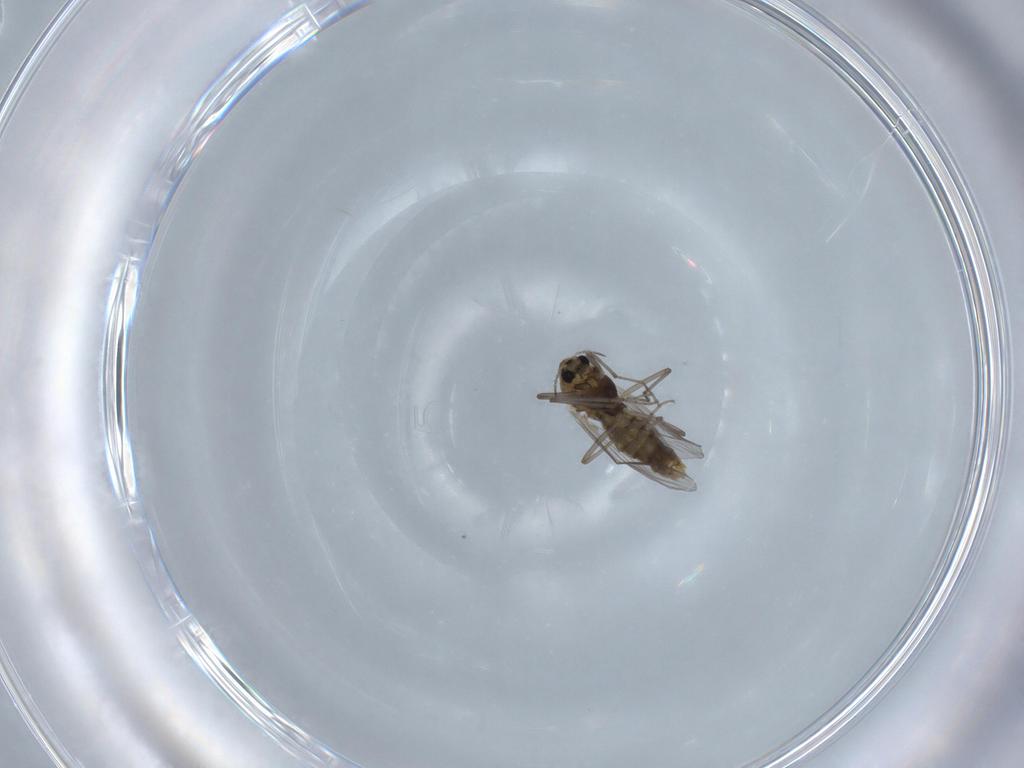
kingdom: Animalia
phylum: Arthropoda
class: Insecta
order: Diptera
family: Chironomidae
